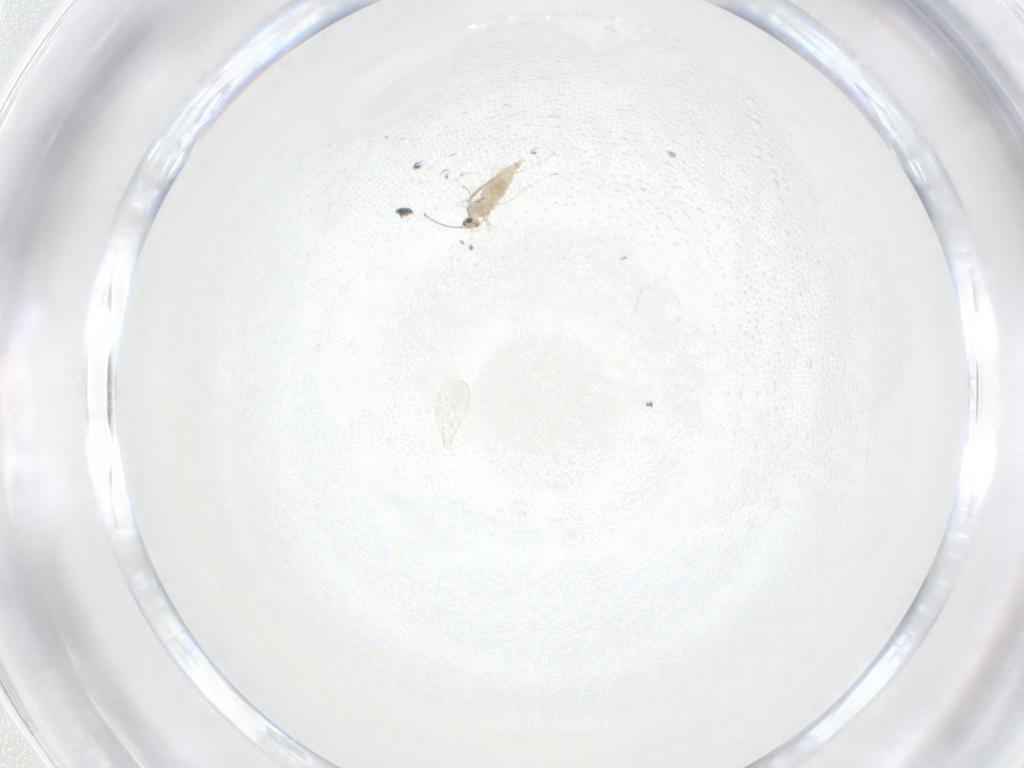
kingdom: Animalia
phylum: Arthropoda
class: Insecta
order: Diptera
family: Cecidomyiidae
